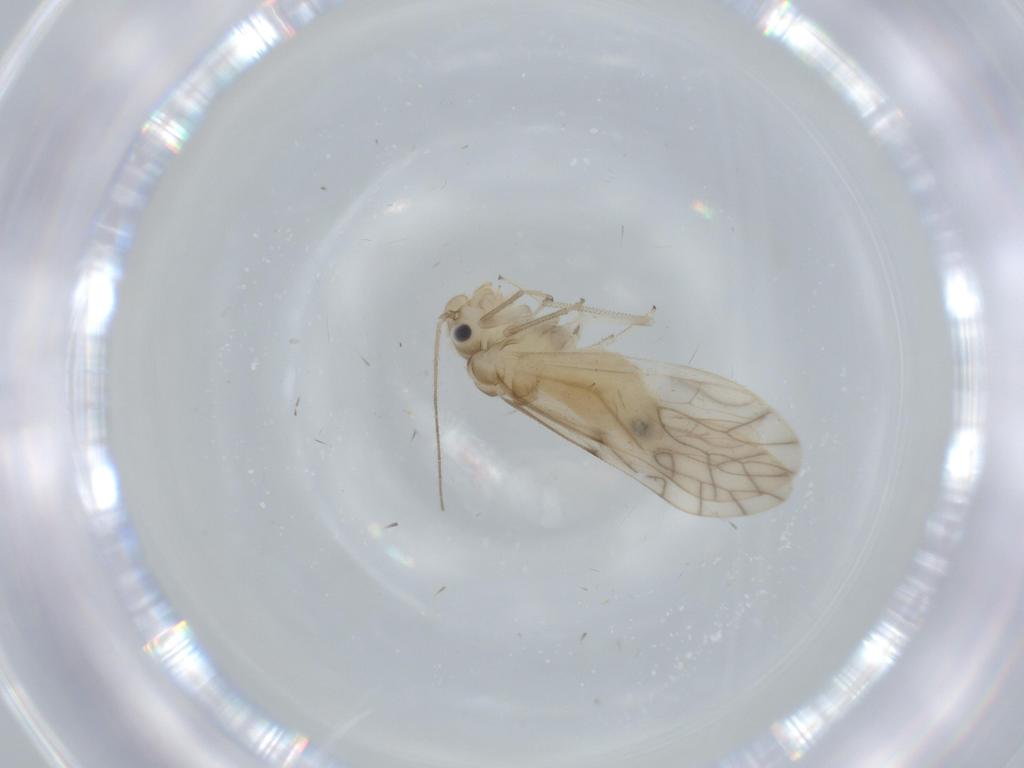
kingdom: Animalia
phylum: Arthropoda
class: Insecta
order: Psocodea
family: Caeciliusidae
